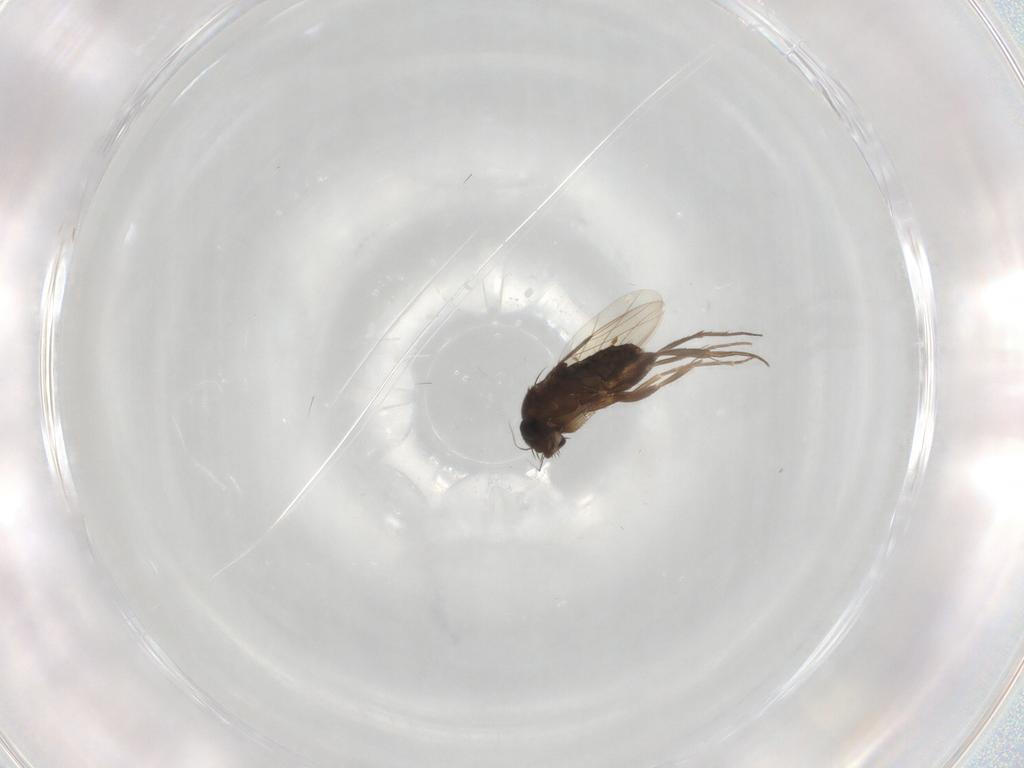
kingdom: Animalia
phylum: Arthropoda
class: Insecta
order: Diptera
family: Phoridae
